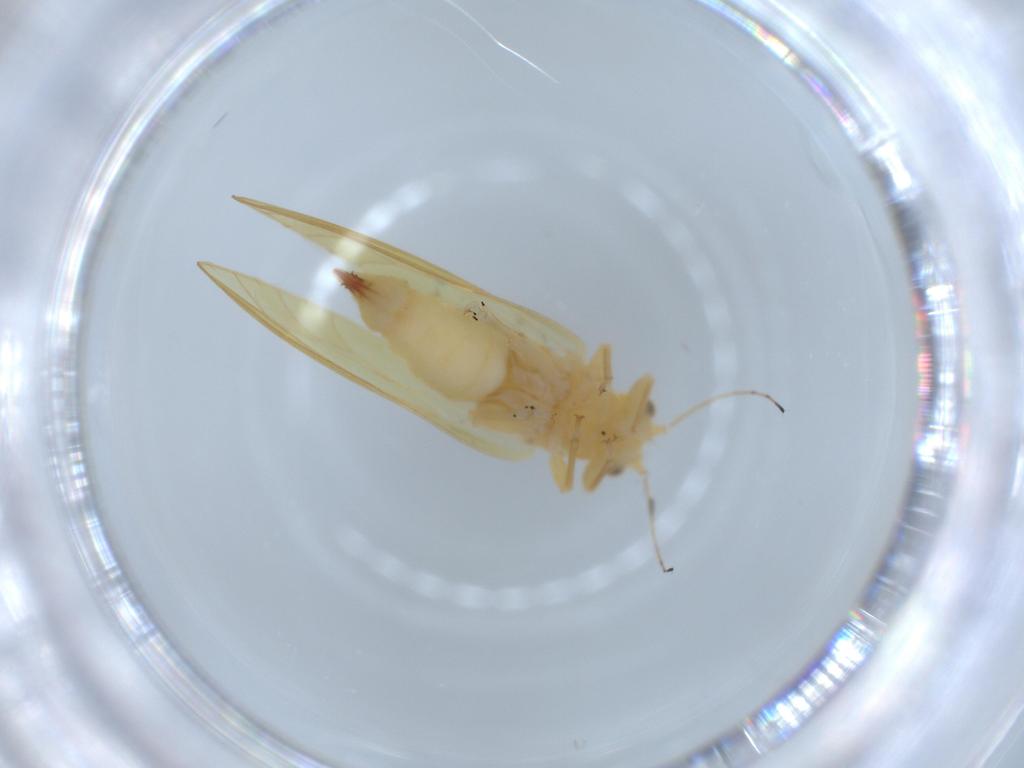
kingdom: Animalia
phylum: Arthropoda
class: Insecta
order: Hemiptera
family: Triozidae
